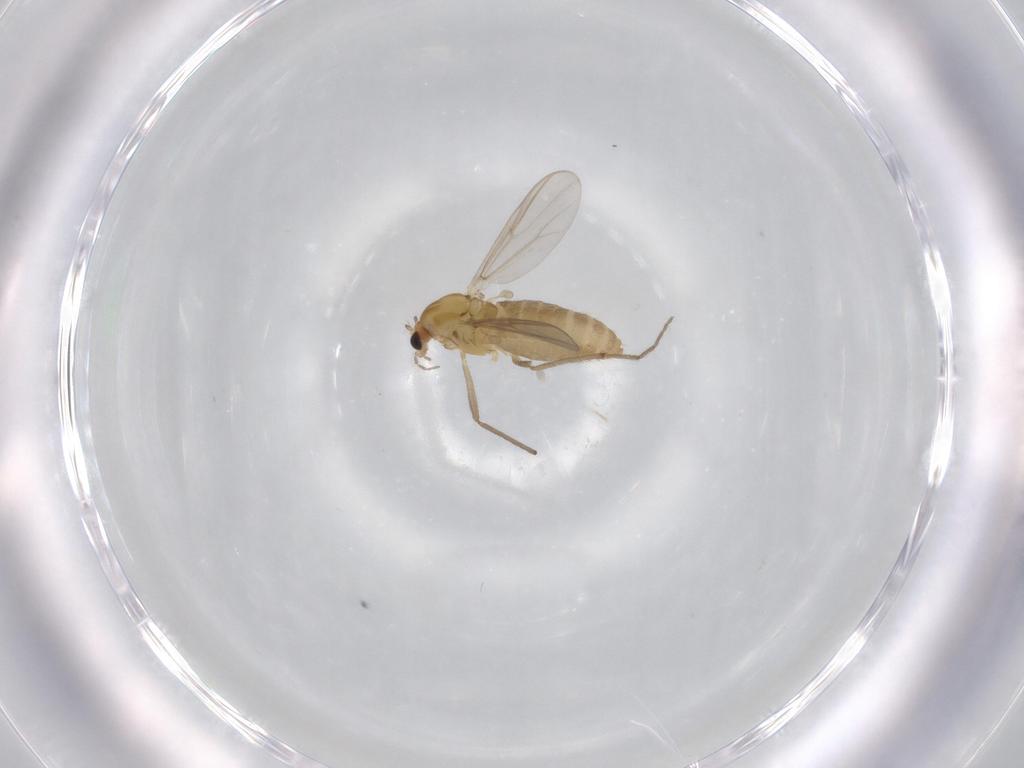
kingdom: Animalia
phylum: Arthropoda
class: Insecta
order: Diptera
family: Chironomidae
